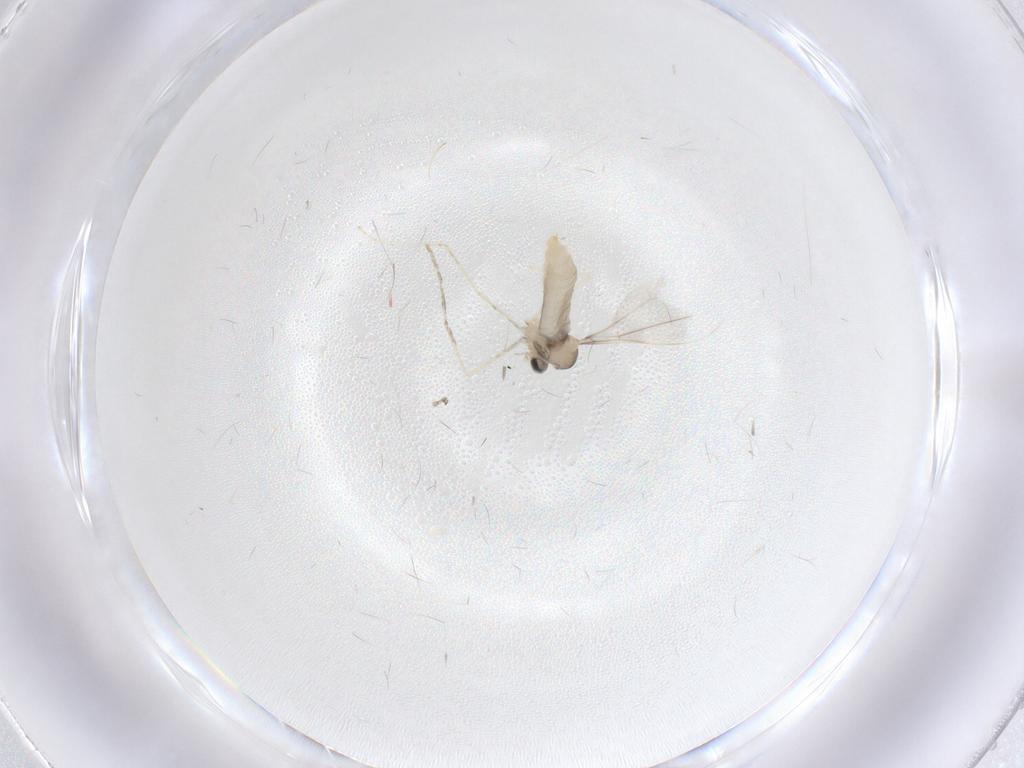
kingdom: Animalia
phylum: Arthropoda
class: Insecta
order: Diptera
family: Cecidomyiidae
